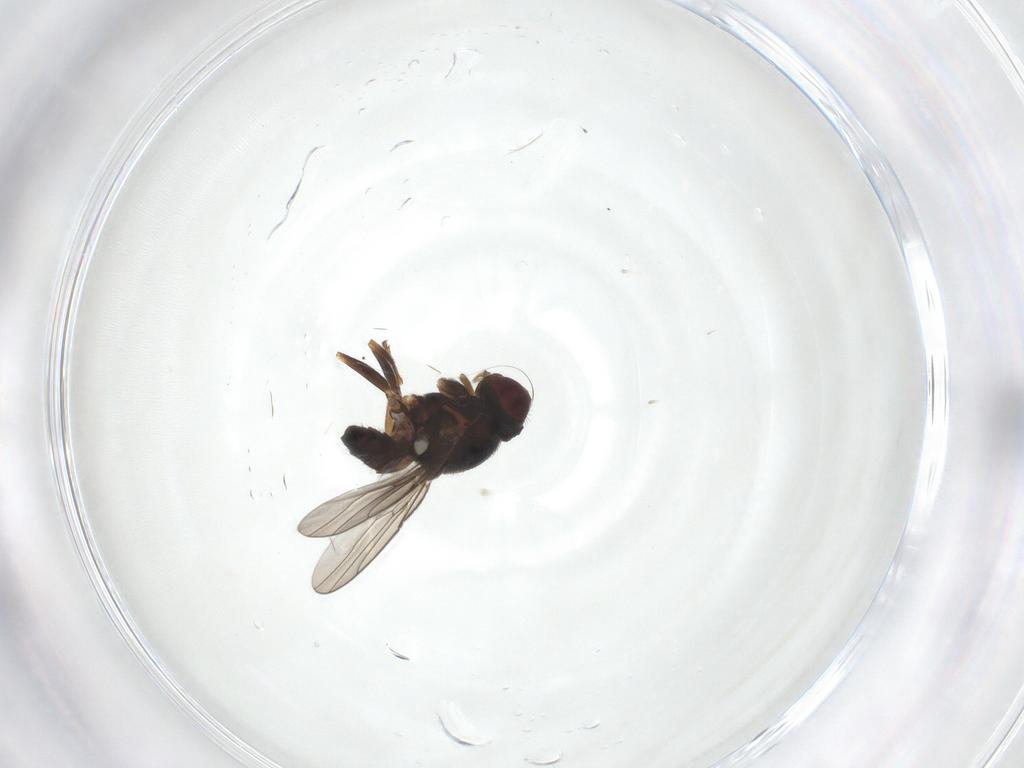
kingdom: Animalia
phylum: Arthropoda
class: Insecta
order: Diptera
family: Chloropidae
